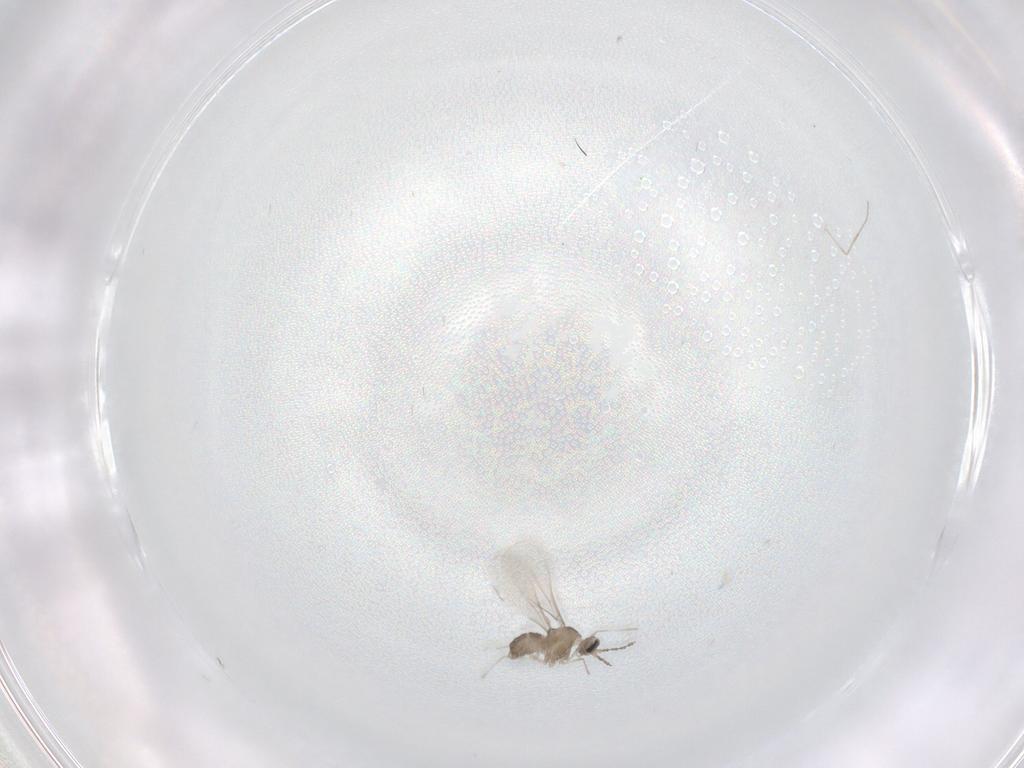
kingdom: Animalia
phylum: Arthropoda
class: Insecta
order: Diptera
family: Cecidomyiidae
